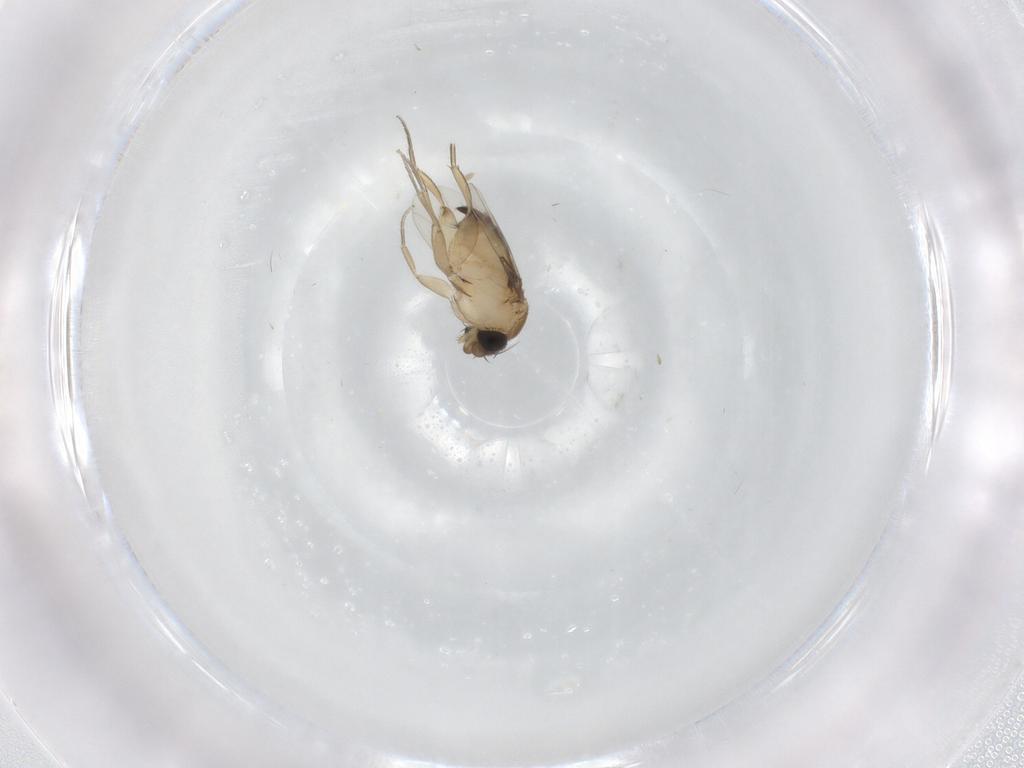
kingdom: Animalia
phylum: Arthropoda
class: Insecta
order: Diptera
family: Phoridae
